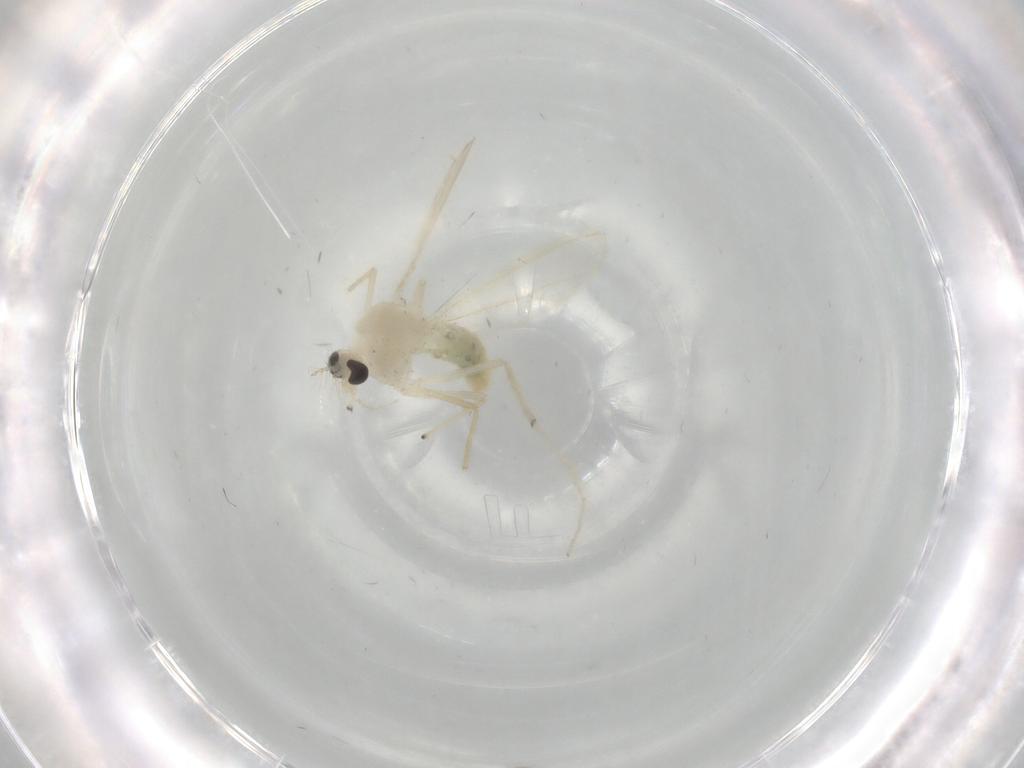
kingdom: Animalia
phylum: Arthropoda
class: Insecta
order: Diptera
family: Chironomidae
